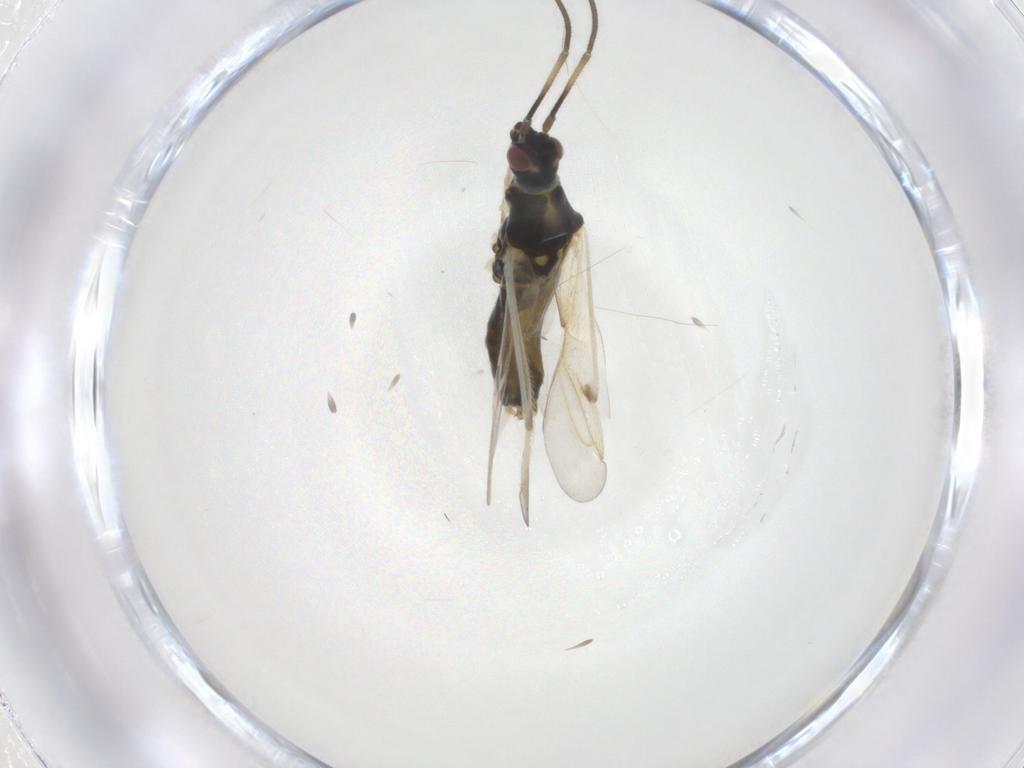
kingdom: Animalia
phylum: Arthropoda
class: Insecta
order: Hemiptera
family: Miridae
